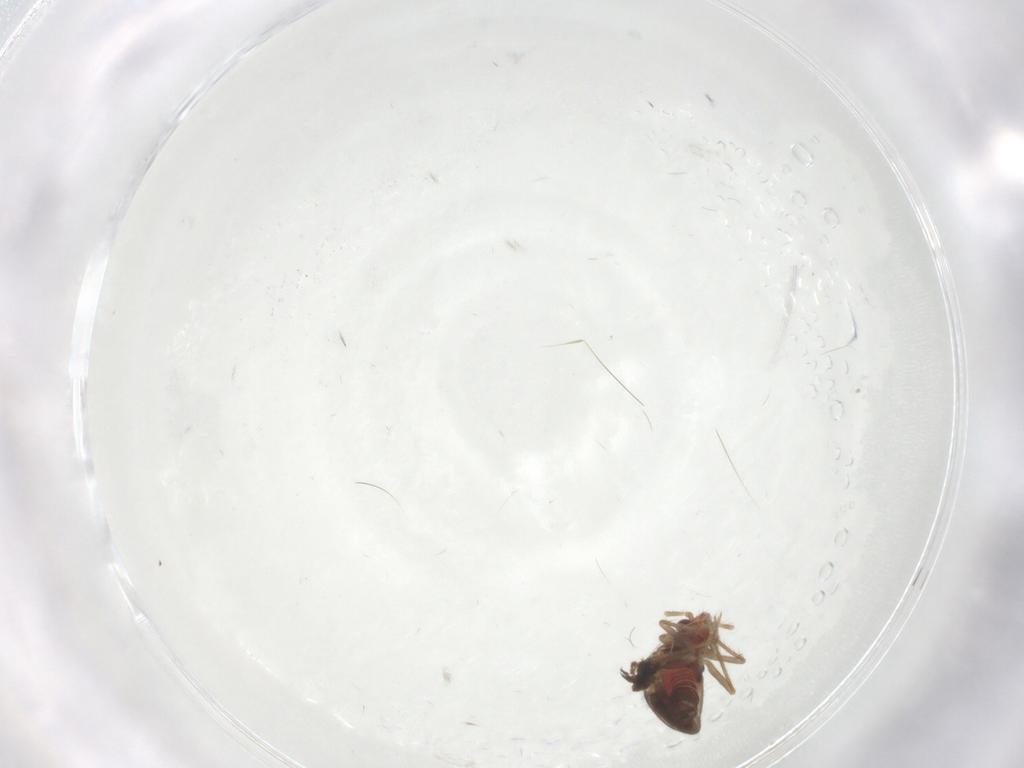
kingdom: Animalia
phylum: Arthropoda
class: Insecta
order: Hemiptera
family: Ceratocombidae
